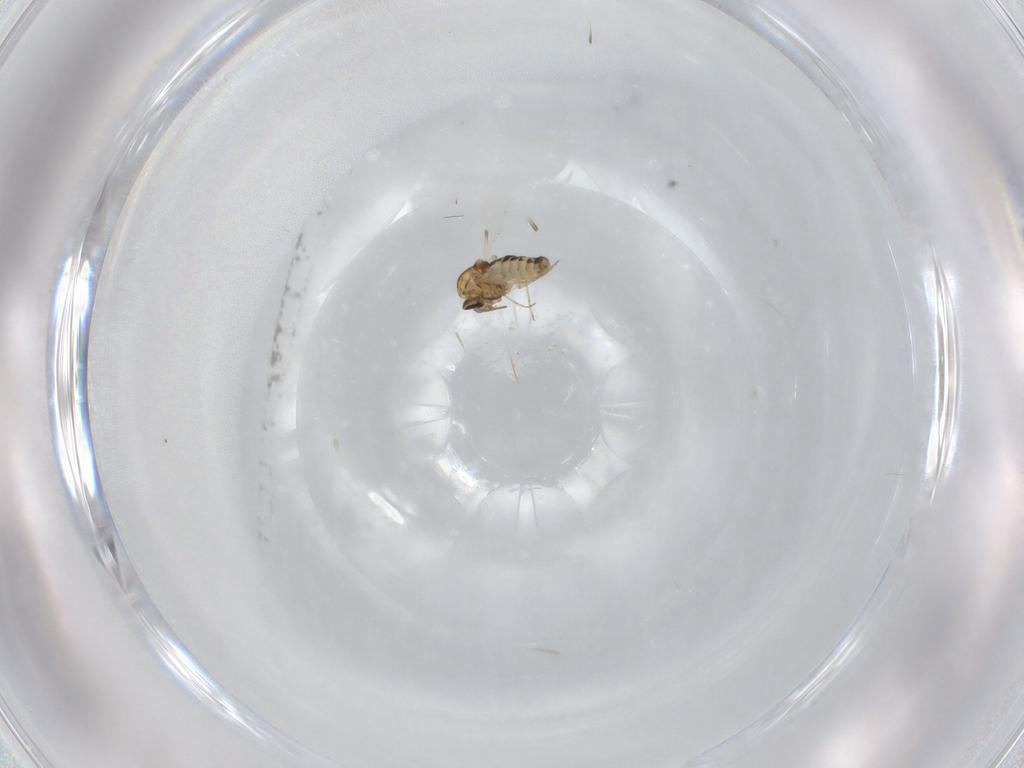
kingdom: Animalia
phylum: Arthropoda
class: Insecta
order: Diptera
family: Ceratopogonidae
